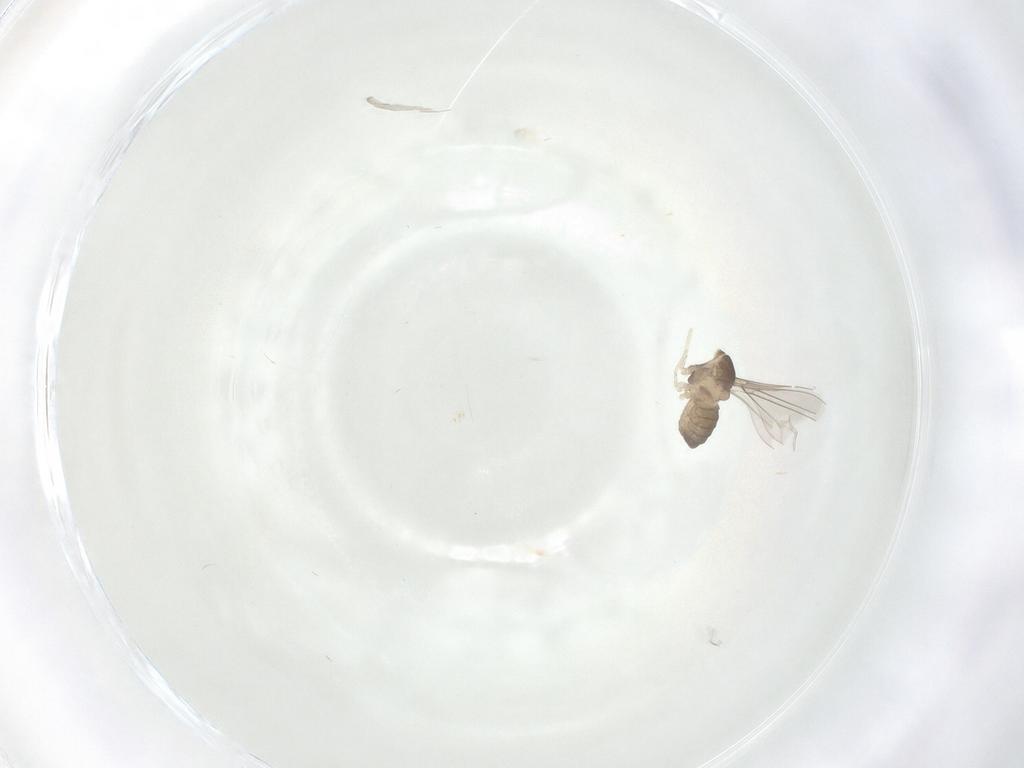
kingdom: Animalia
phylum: Arthropoda
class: Insecta
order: Diptera
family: Cecidomyiidae
